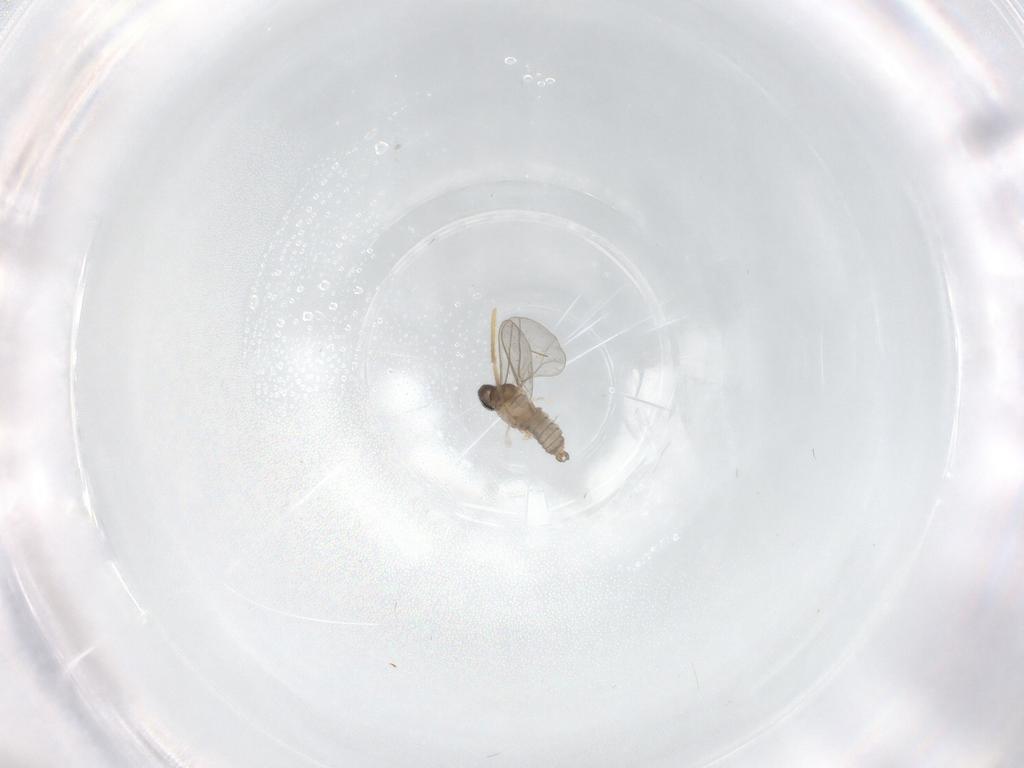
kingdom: Animalia
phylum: Arthropoda
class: Insecta
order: Diptera
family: Cecidomyiidae
